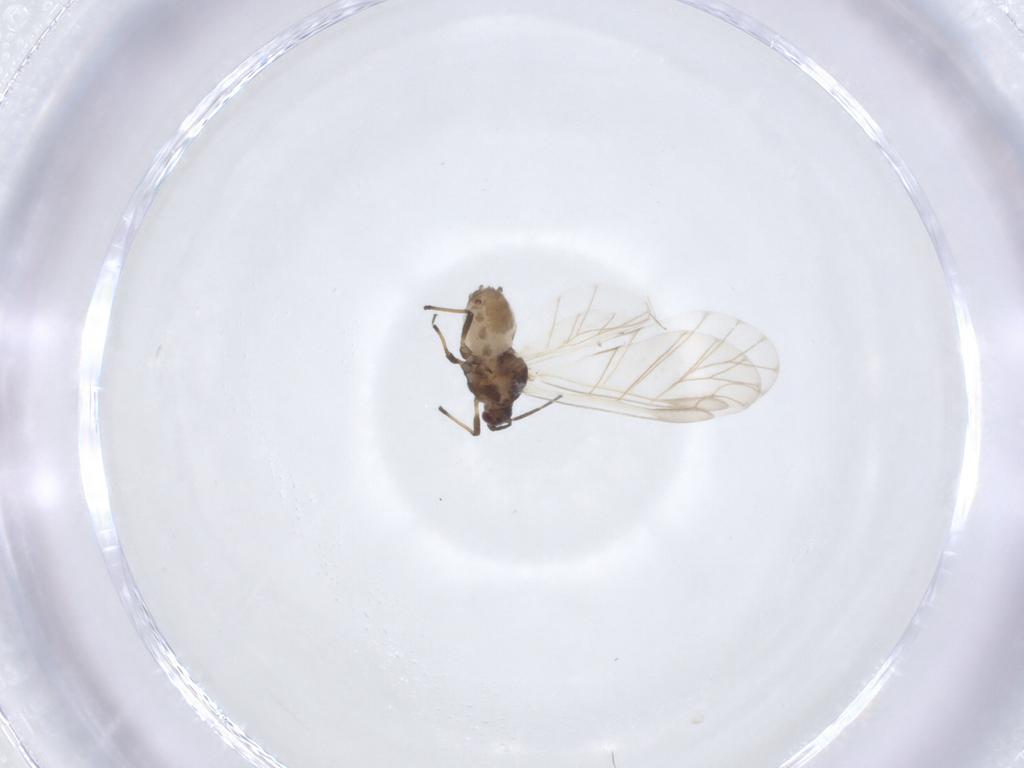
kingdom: Animalia
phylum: Arthropoda
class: Insecta
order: Hemiptera
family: Aphididae
